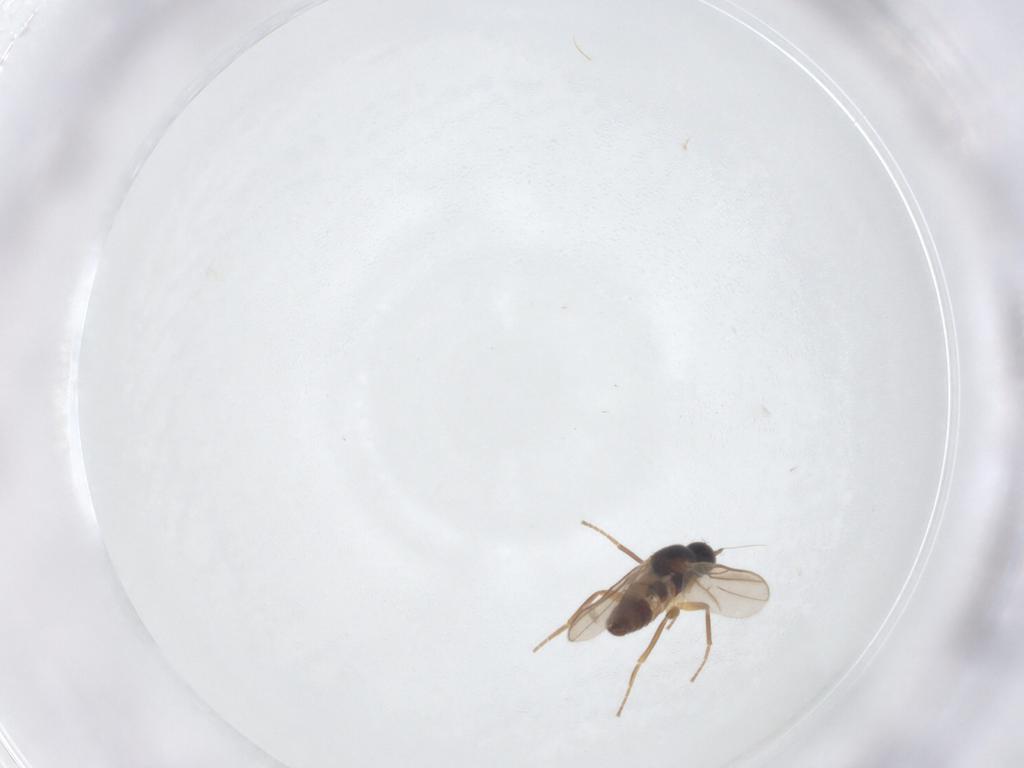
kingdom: Animalia
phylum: Arthropoda
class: Insecta
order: Diptera
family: Hybotidae
